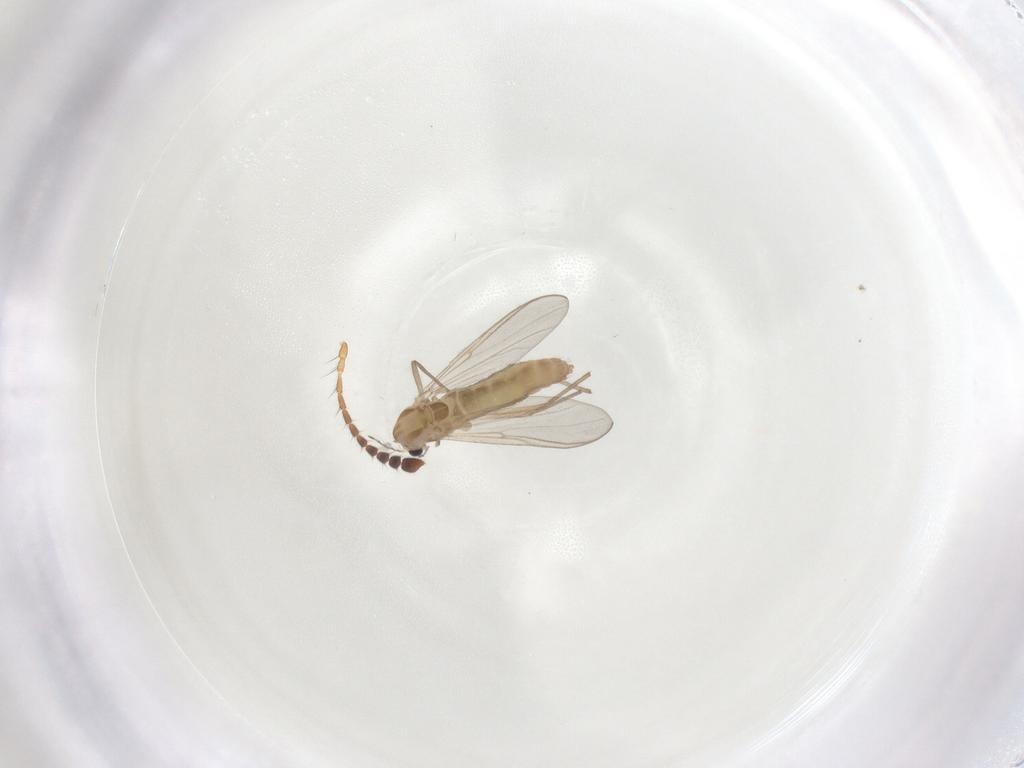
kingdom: Animalia
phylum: Arthropoda
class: Insecta
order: Diptera
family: Chironomidae
